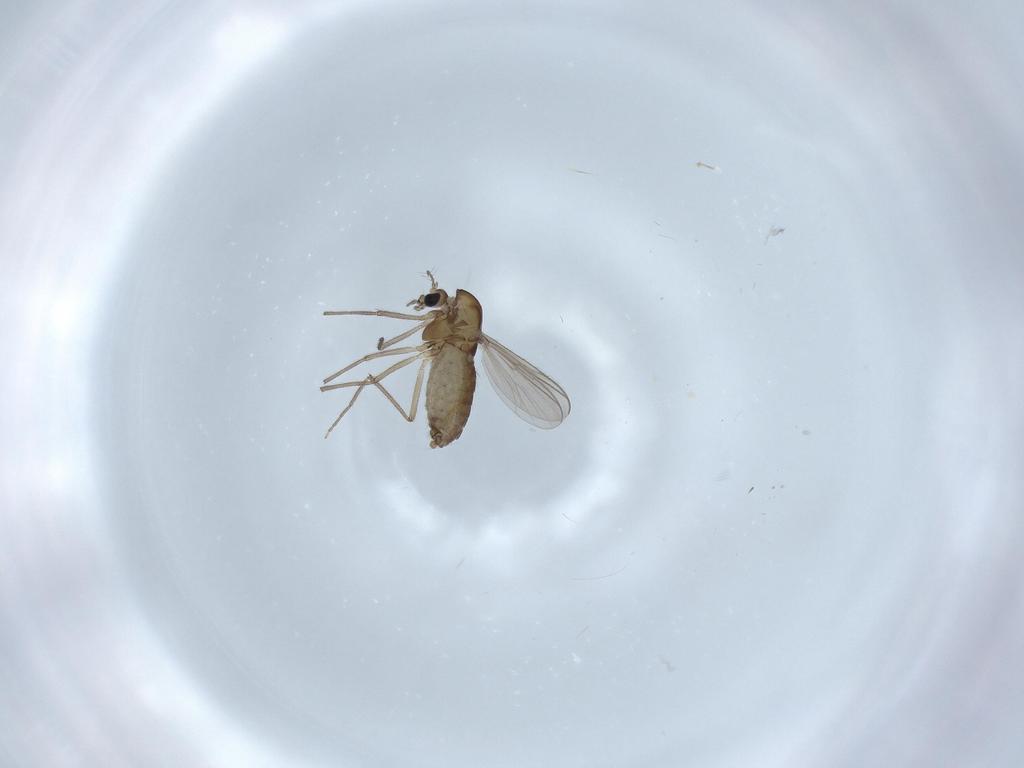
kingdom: Animalia
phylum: Arthropoda
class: Insecta
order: Diptera
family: Chironomidae
